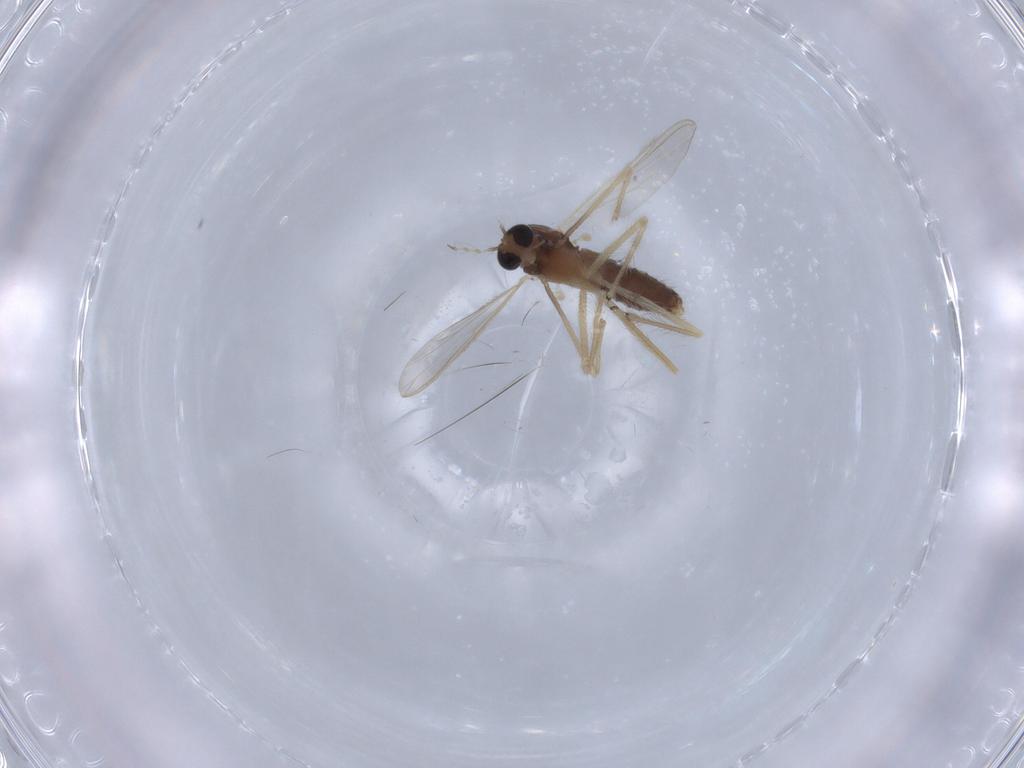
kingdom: Animalia
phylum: Arthropoda
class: Insecta
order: Diptera
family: Chironomidae
